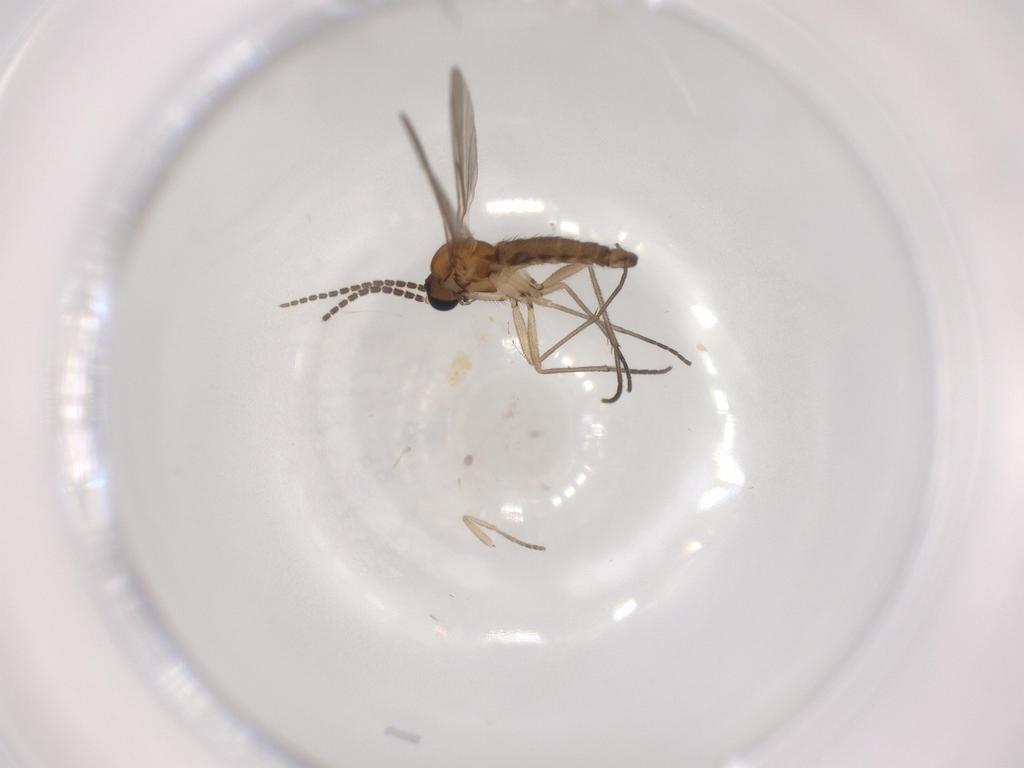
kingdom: Animalia
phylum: Arthropoda
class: Insecta
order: Diptera
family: Sciaridae
